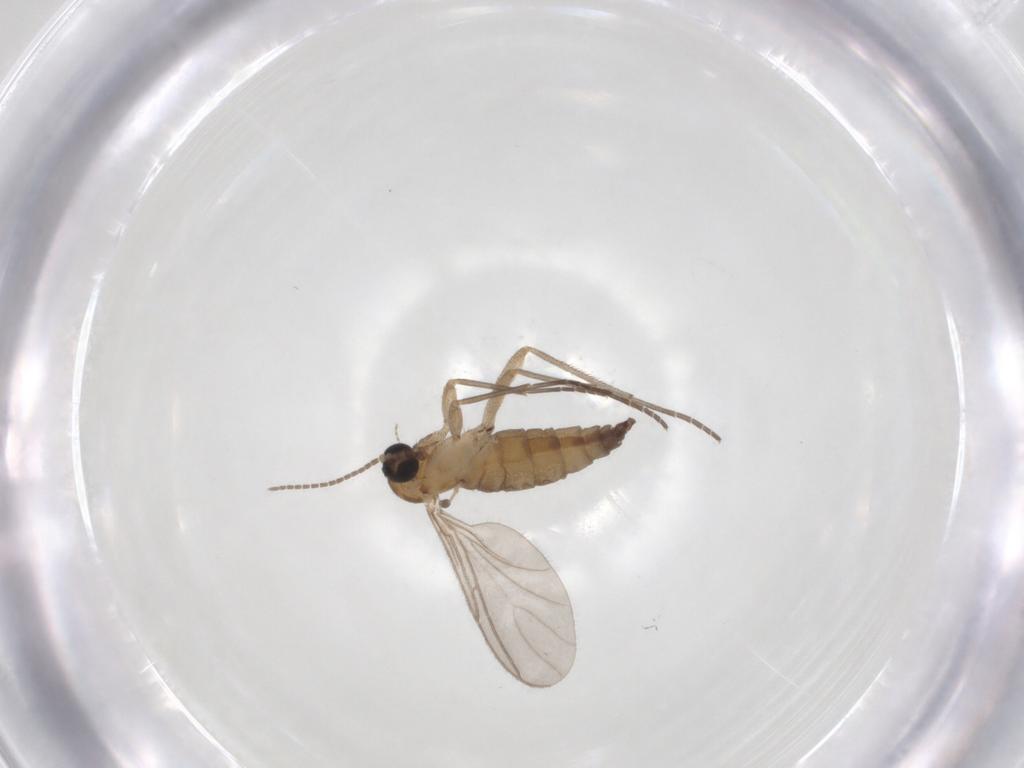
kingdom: Animalia
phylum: Arthropoda
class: Insecta
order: Diptera
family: Sciaridae
